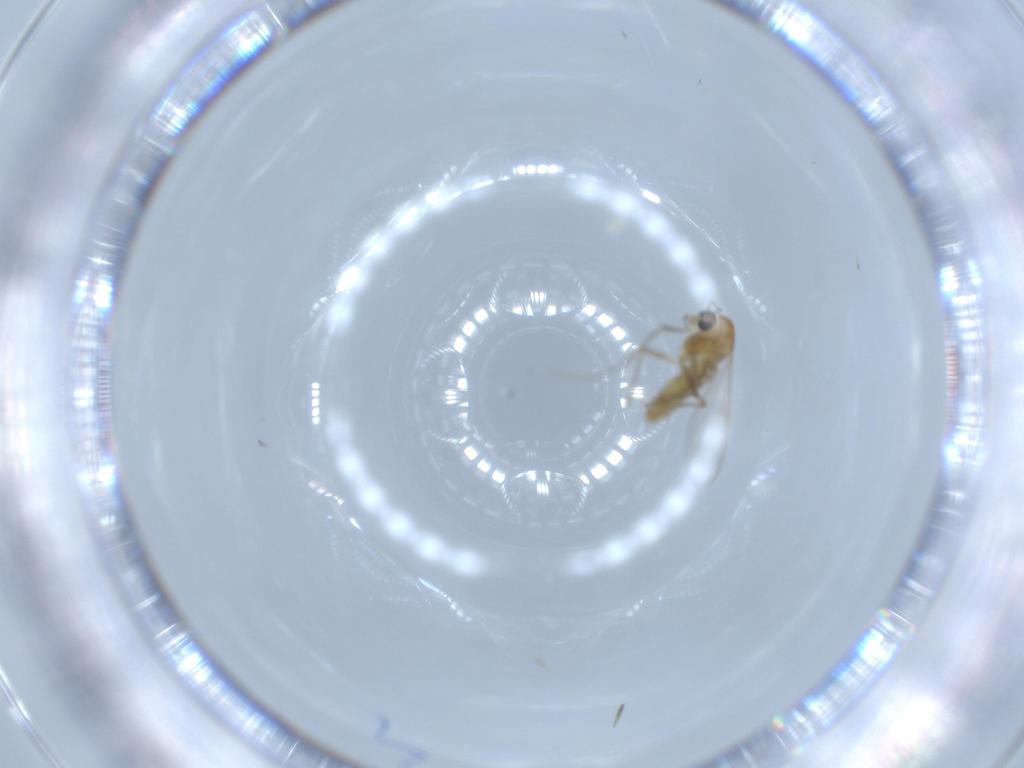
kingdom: Animalia
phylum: Arthropoda
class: Insecta
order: Diptera
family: Chironomidae
